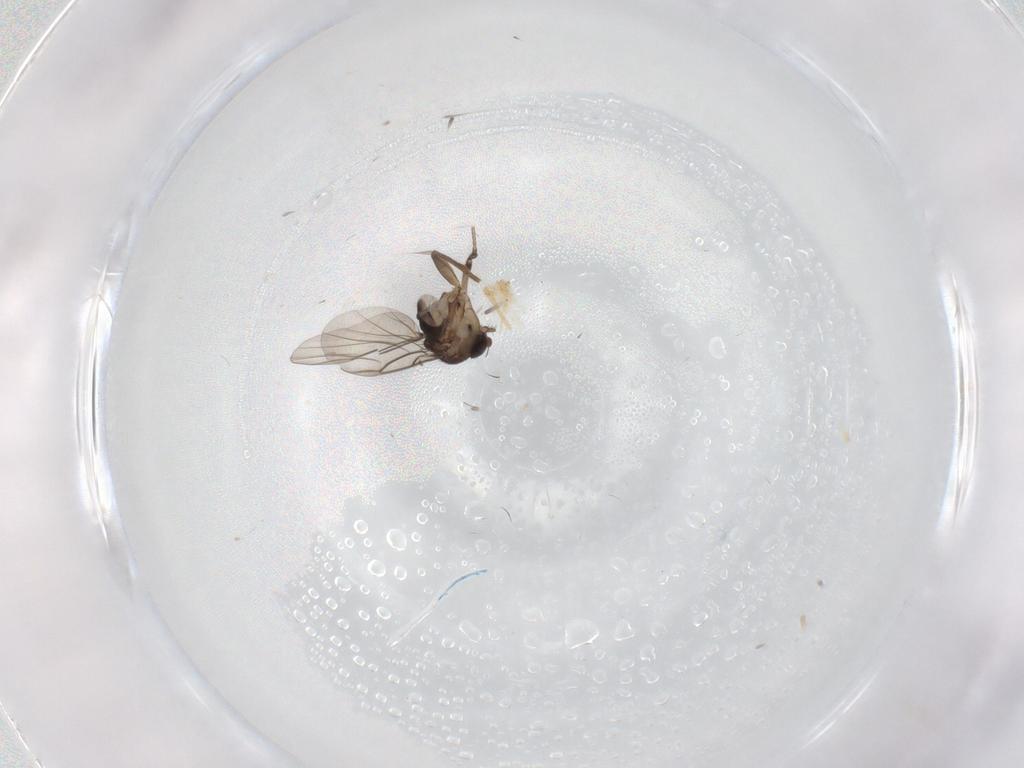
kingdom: Animalia
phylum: Arthropoda
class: Insecta
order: Diptera
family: Phoridae
